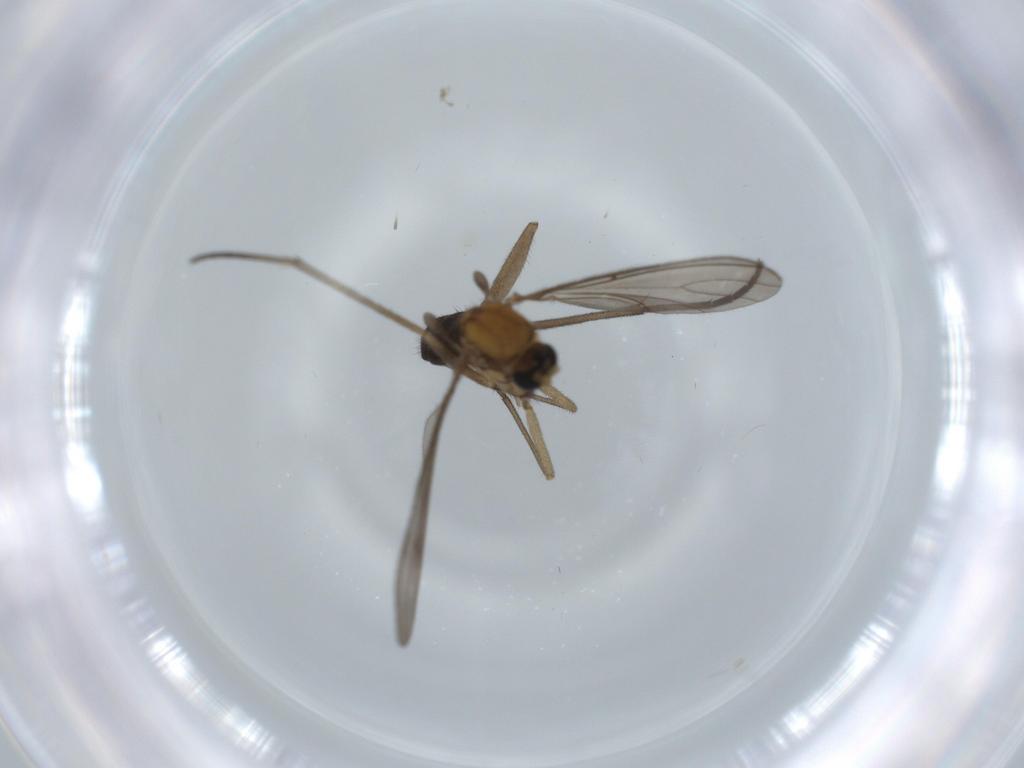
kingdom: Animalia
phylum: Arthropoda
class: Insecta
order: Diptera
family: Sciaridae
